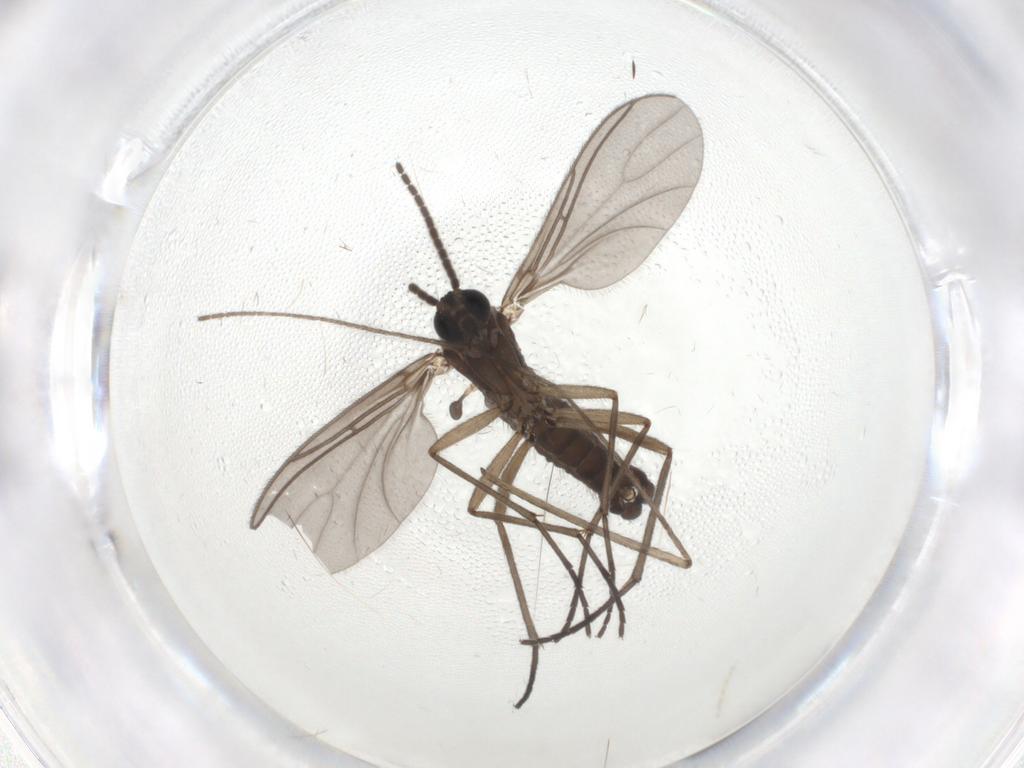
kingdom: Animalia
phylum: Arthropoda
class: Insecta
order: Diptera
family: Sciaridae
